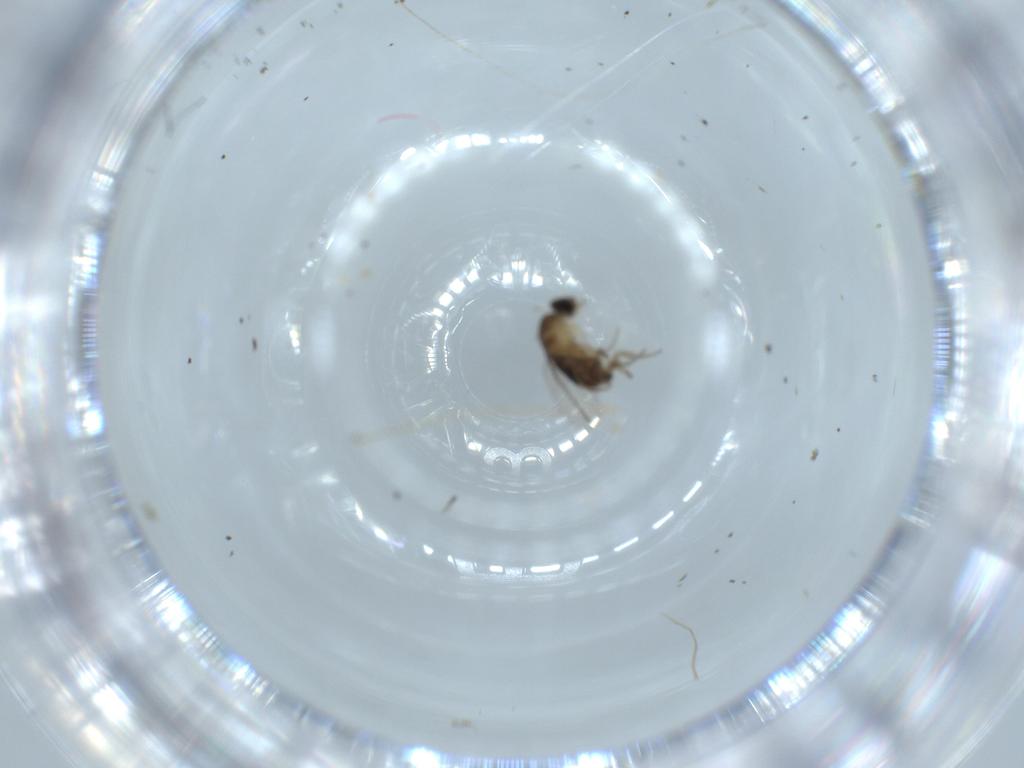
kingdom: Animalia
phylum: Arthropoda
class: Insecta
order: Diptera
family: Phoridae
